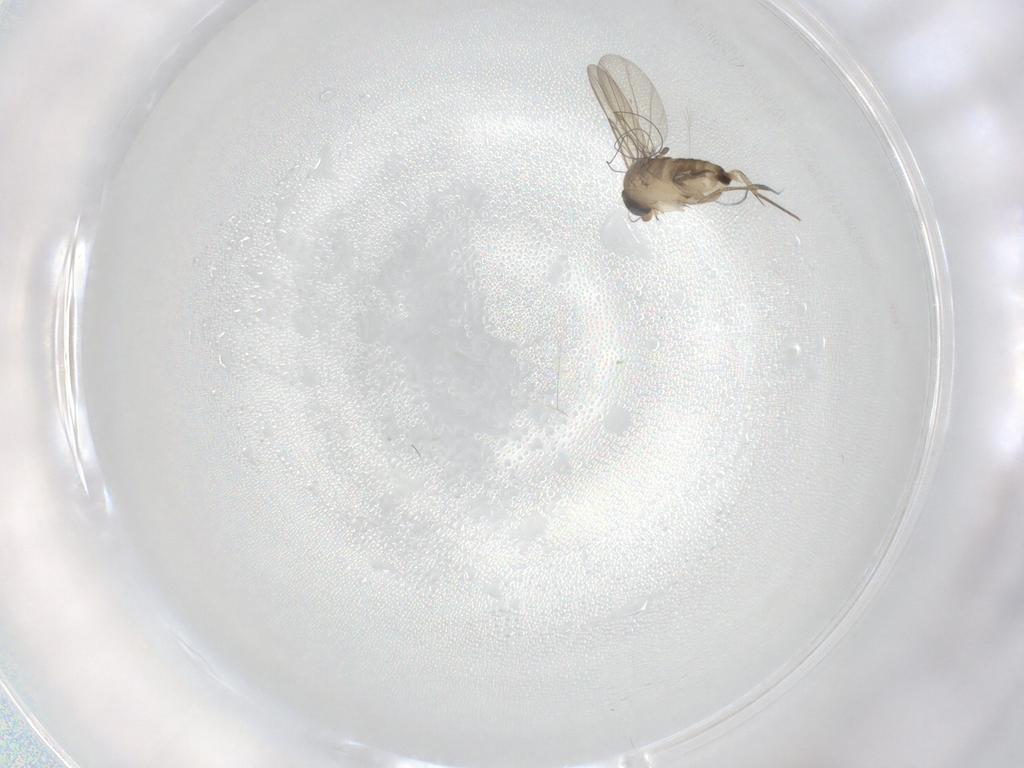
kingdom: Animalia
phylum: Arthropoda
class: Insecta
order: Diptera
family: Phoridae
